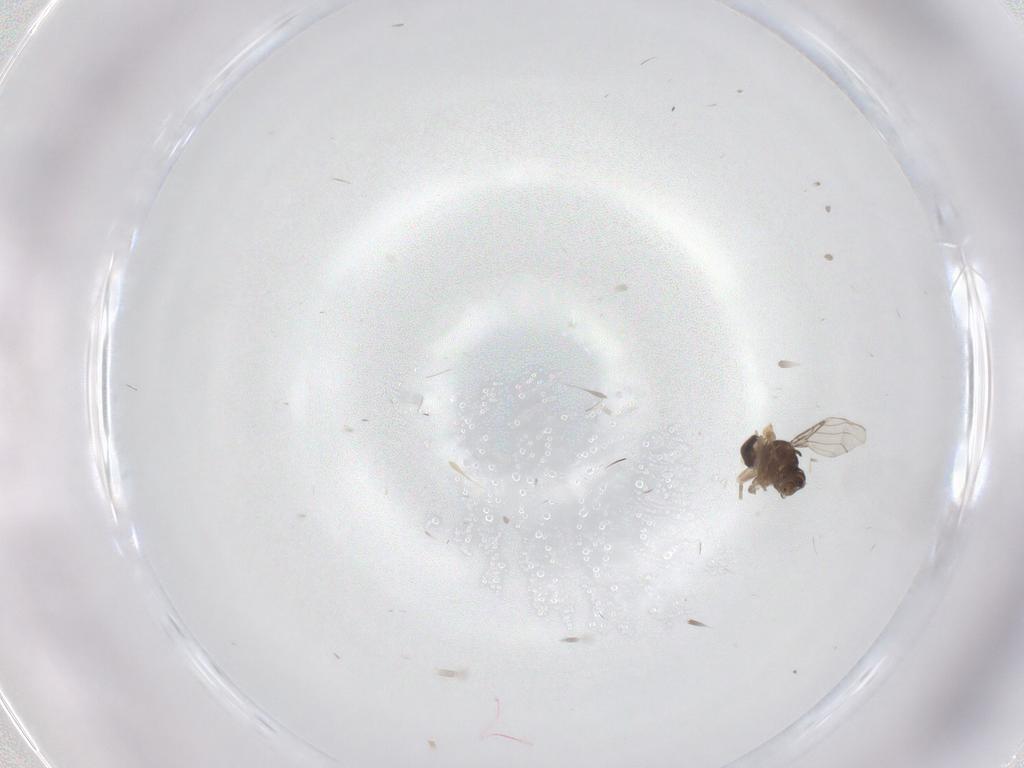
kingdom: Animalia
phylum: Arthropoda
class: Insecta
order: Diptera
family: Phoridae
